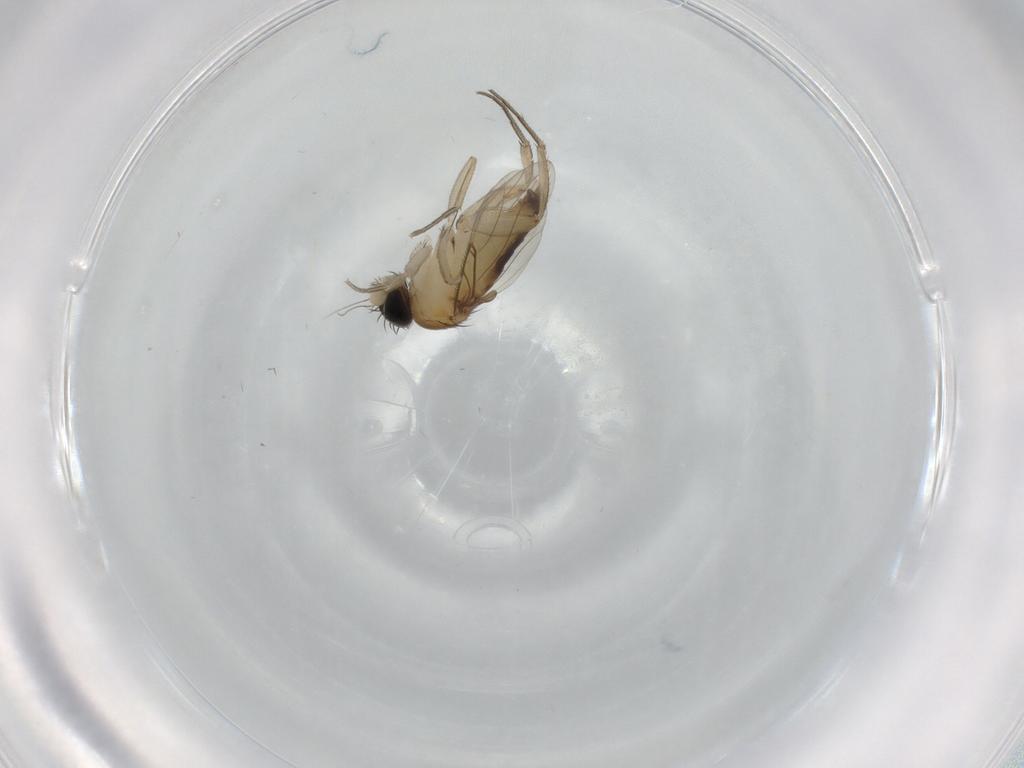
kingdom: Animalia
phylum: Arthropoda
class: Insecta
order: Diptera
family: Phoridae
